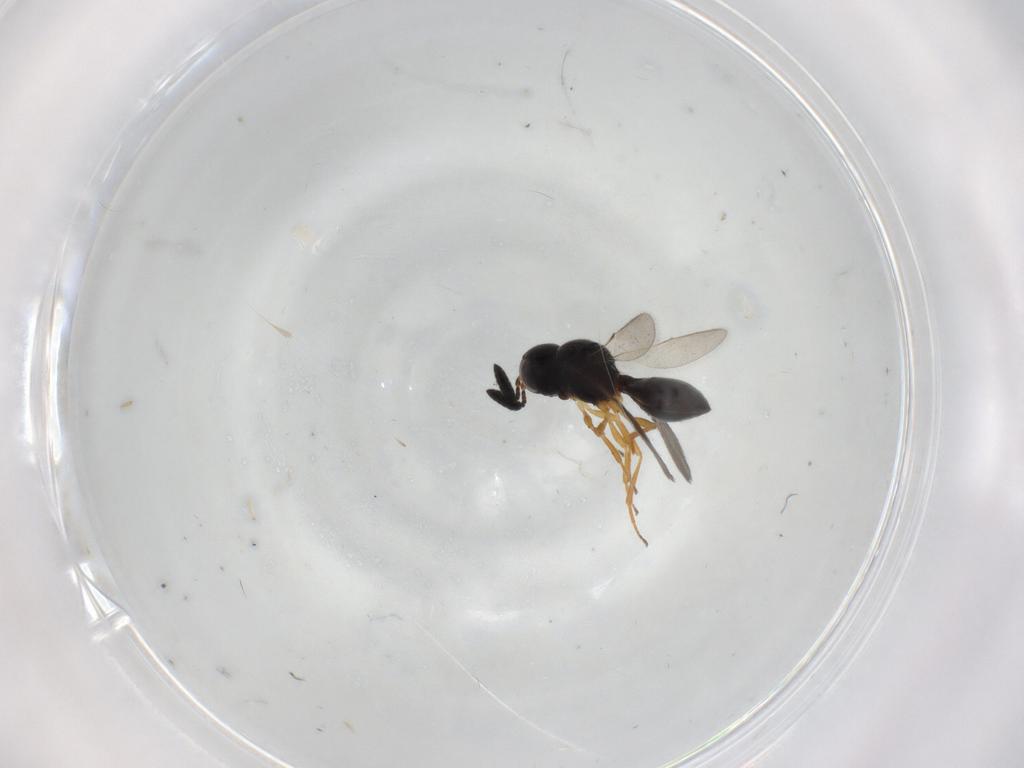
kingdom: Animalia
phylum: Arthropoda
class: Insecta
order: Hymenoptera
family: Scelionidae
